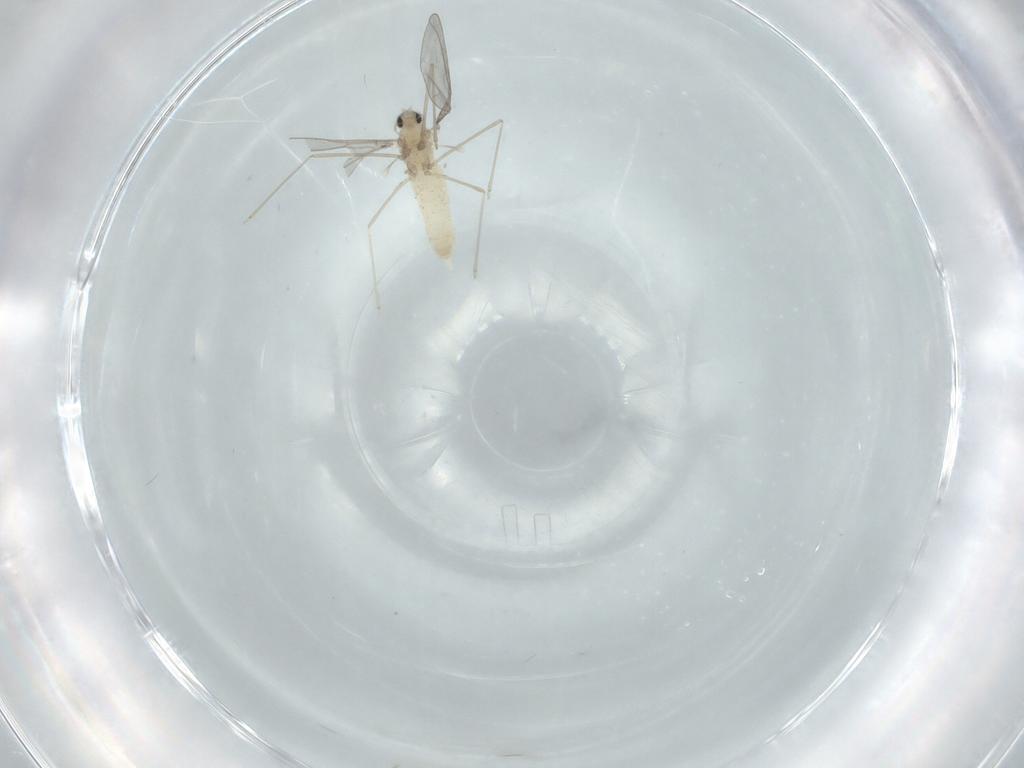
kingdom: Animalia
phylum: Arthropoda
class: Insecta
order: Diptera
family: Cecidomyiidae
